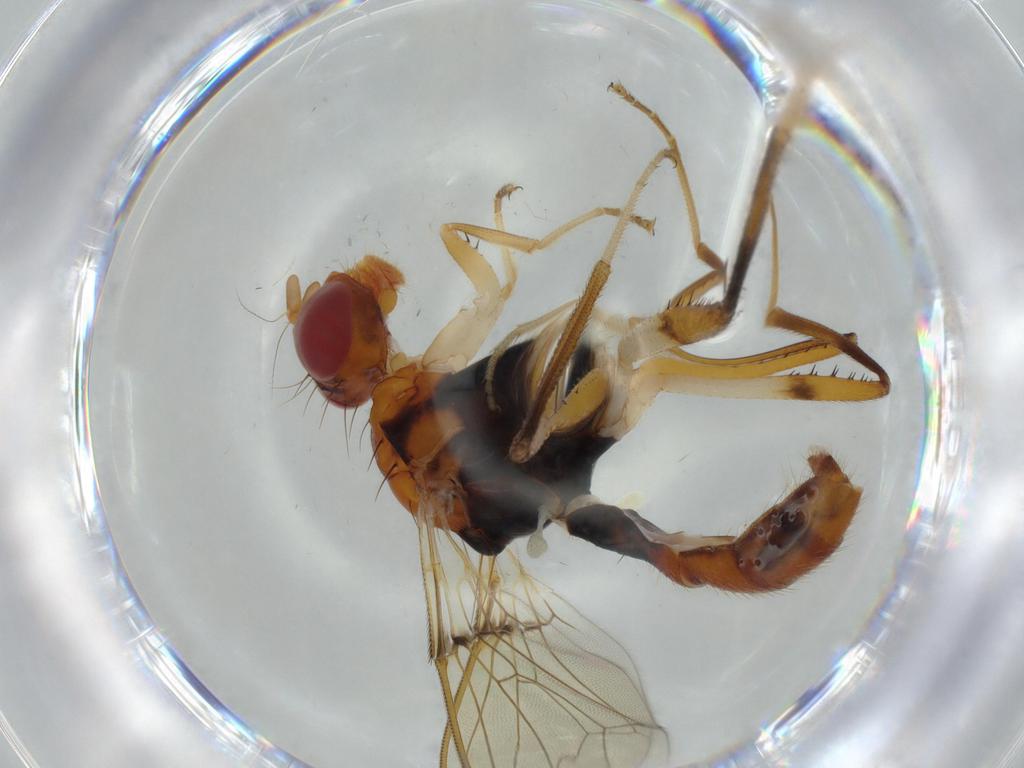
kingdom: Animalia
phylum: Arthropoda
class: Insecta
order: Diptera
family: Richardiidae
